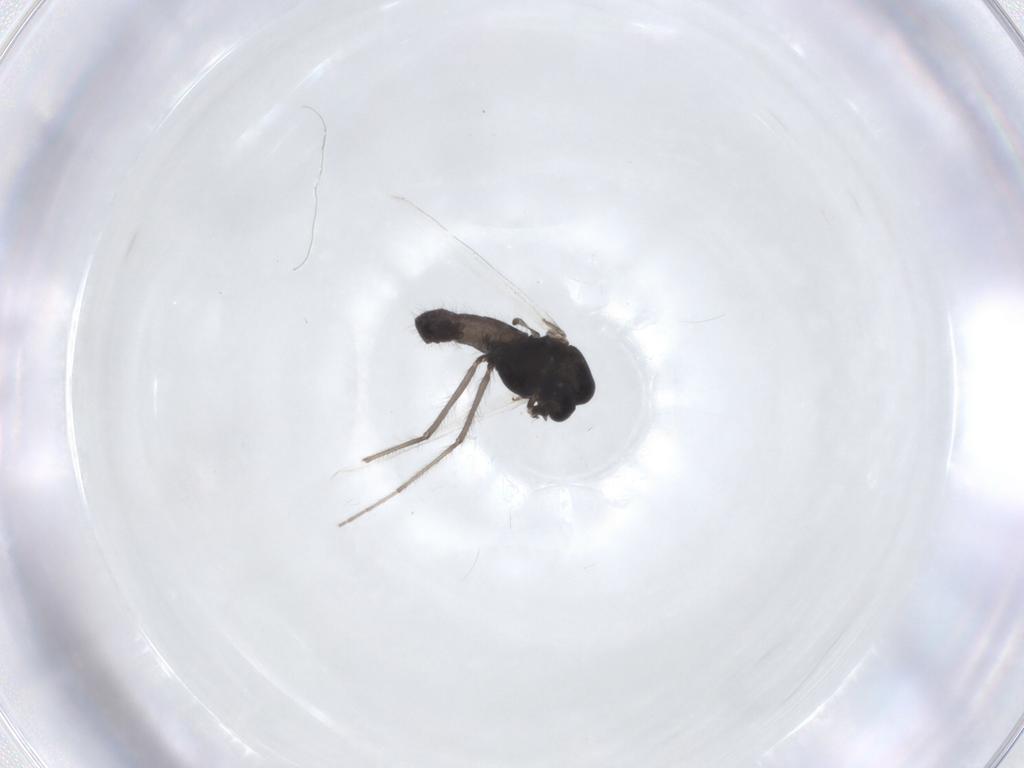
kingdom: Animalia
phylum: Arthropoda
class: Insecta
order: Diptera
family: Chironomidae
